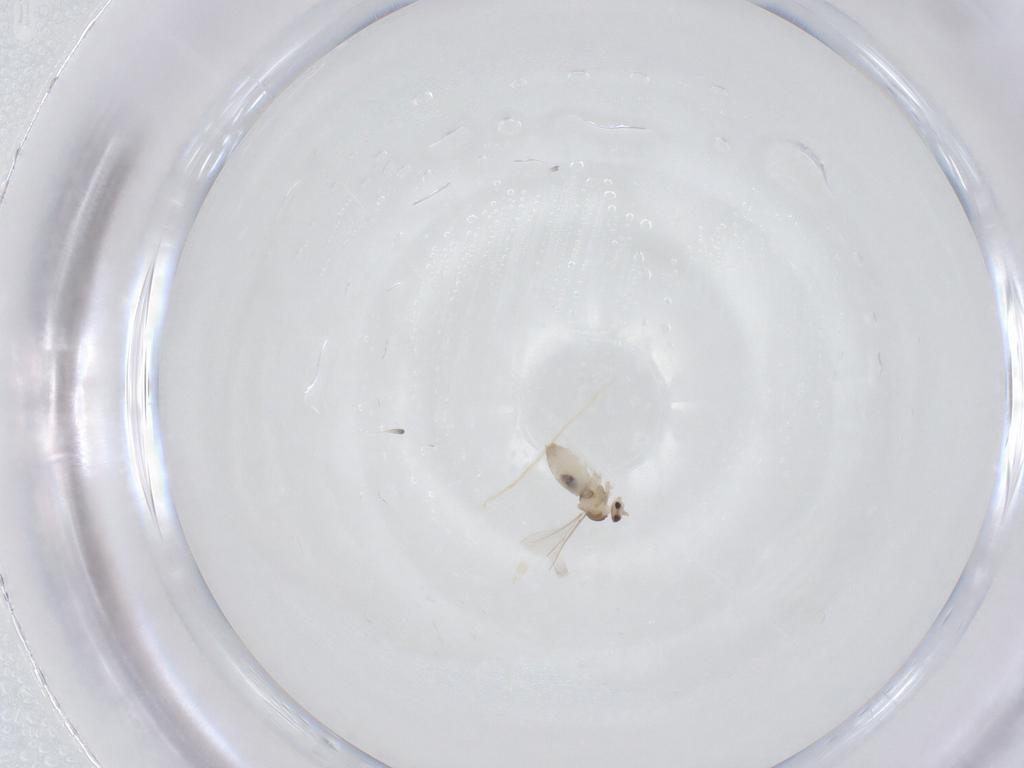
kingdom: Animalia
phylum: Arthropoda
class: Insecta
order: Diptera
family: Cecidomyiidae
